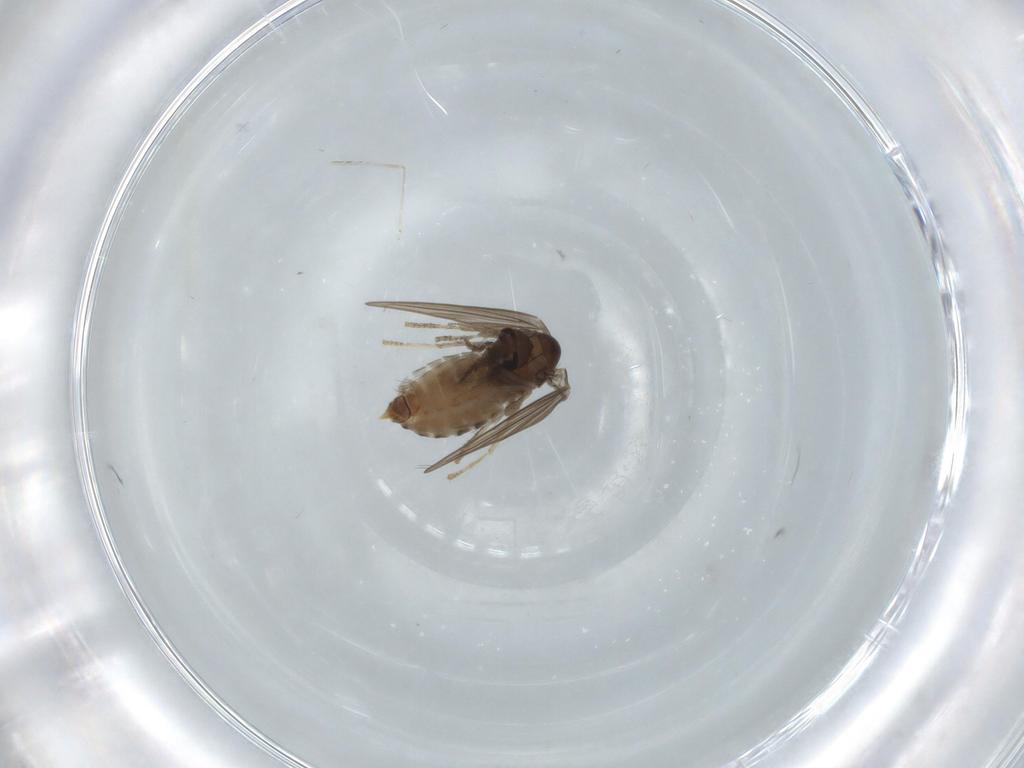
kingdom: Animalia
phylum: Arthropoda
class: Insecta
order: Diptera
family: Psychodidae
